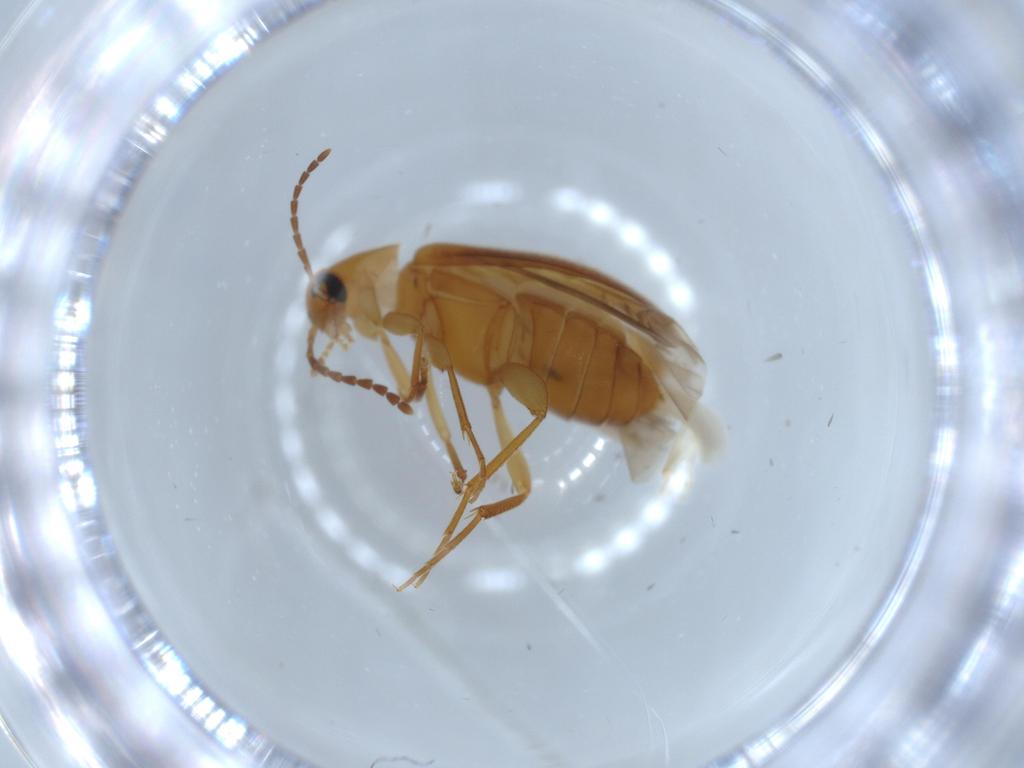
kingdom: Animalia
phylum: Arthropoda
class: Insecta
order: Coleoptera
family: Scraptiidae
